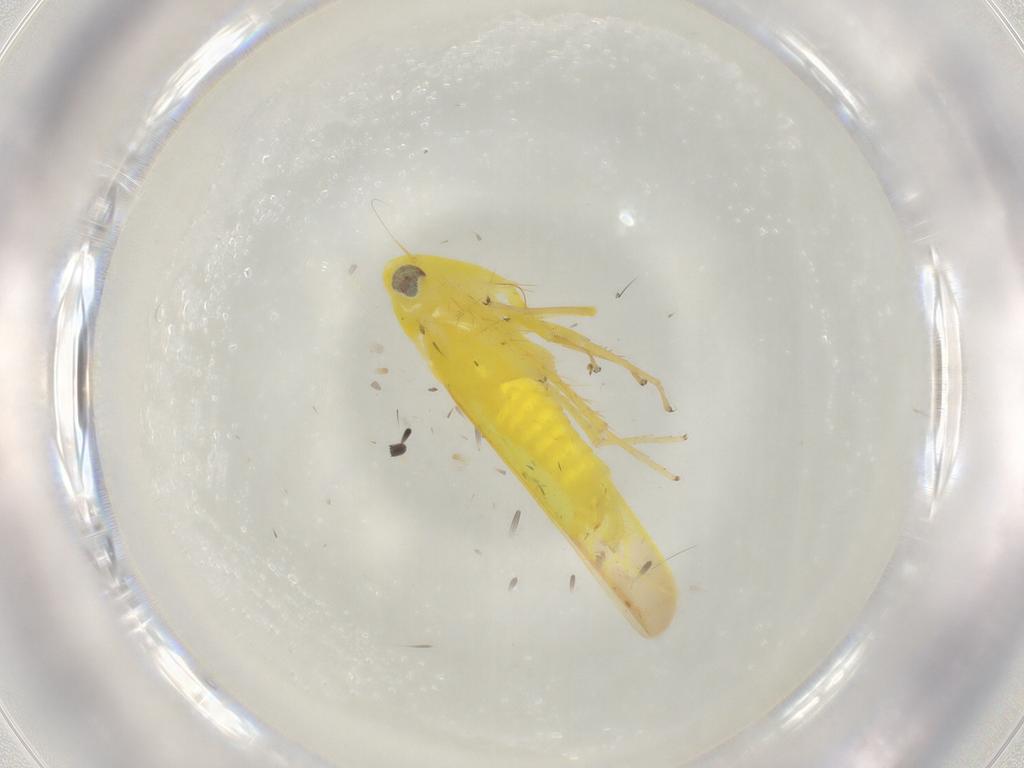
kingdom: Animalia
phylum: Arthropoda
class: Insecta
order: Hemiptera
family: Cicadellidae
